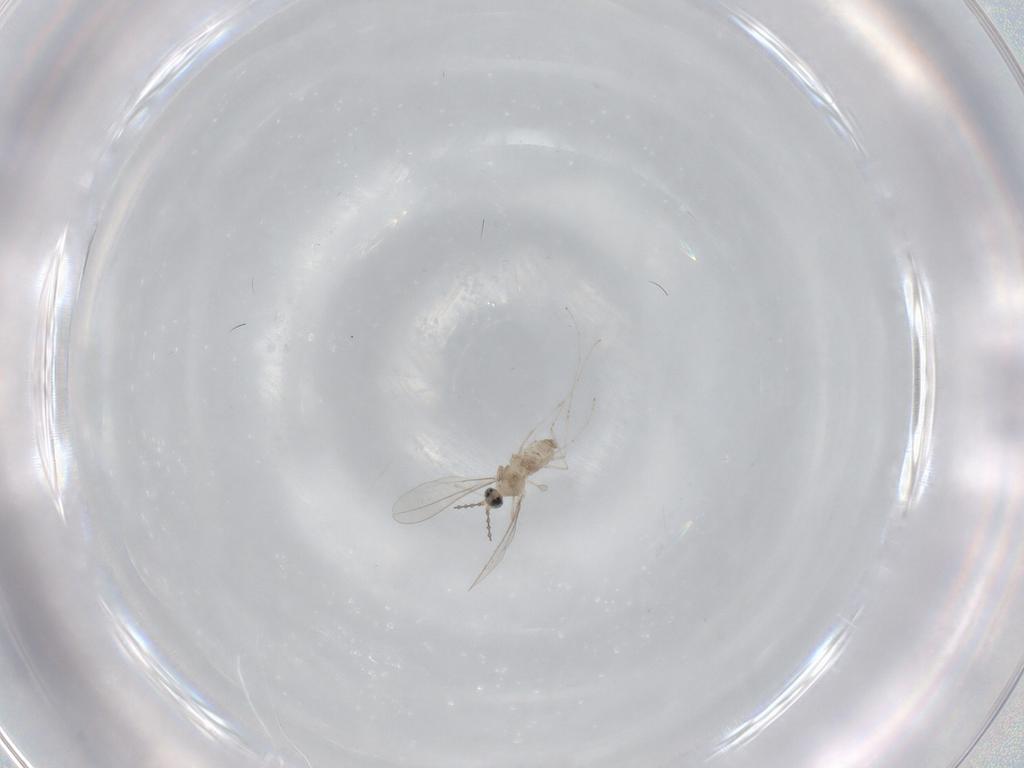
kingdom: Animalia
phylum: Arthropoda
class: Insecta
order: Diptera
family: Cecidomyiidae
